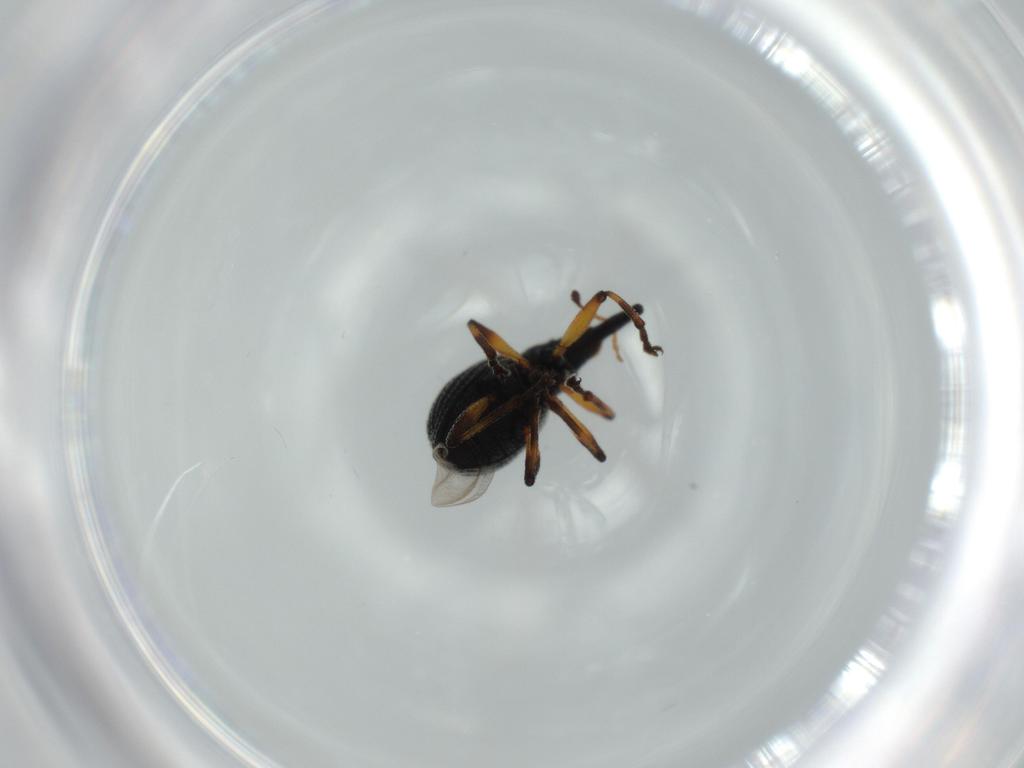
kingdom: Animalia
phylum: Arthropoda
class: Insecta
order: Coleoptera
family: Brentidae
